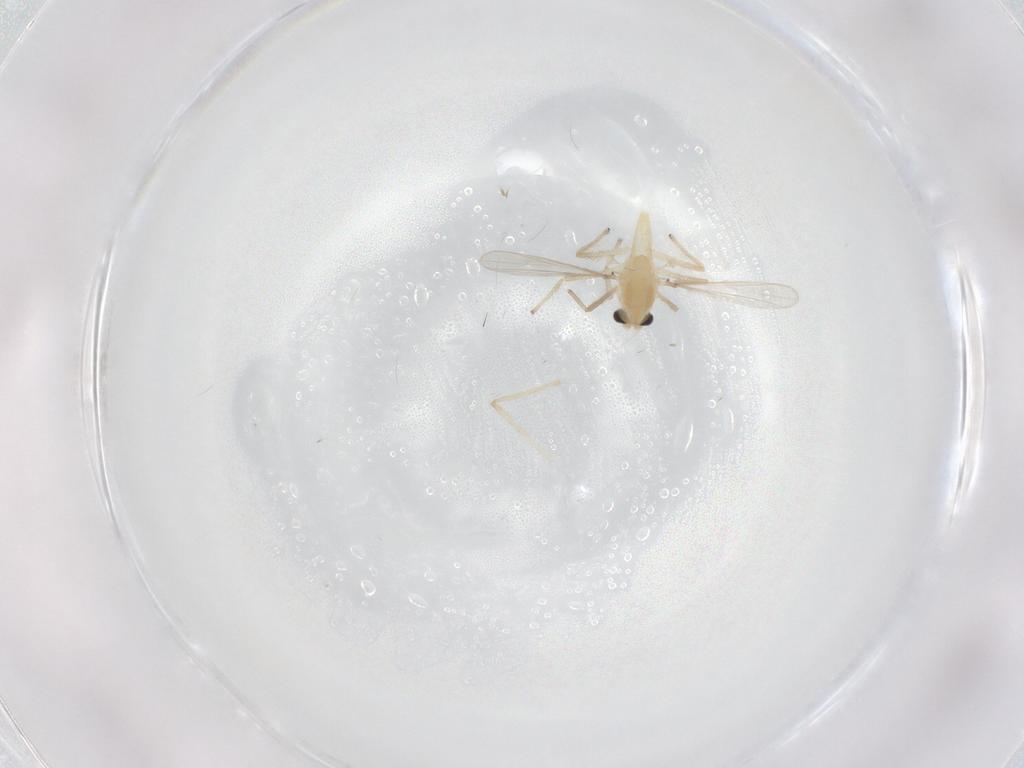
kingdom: Animalia
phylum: Arthropoda
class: Insecta
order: Diptera
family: Chironomidae
